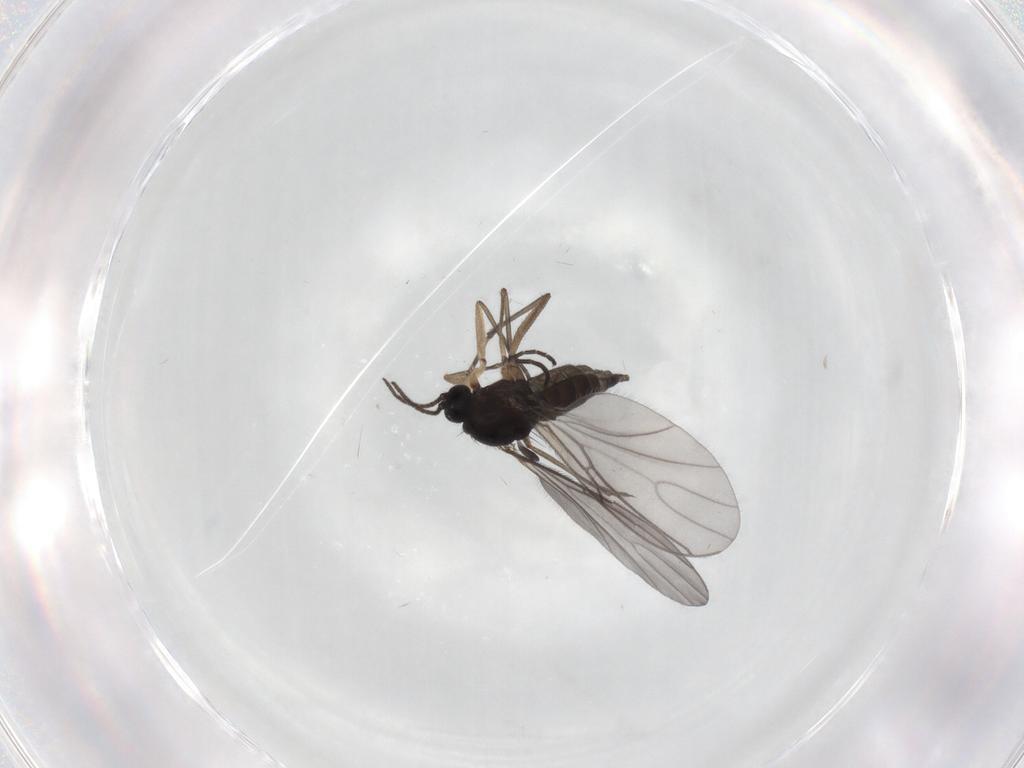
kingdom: Animalia
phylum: Arthropoda
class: Insecta
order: Diptera
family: Sciaridae
